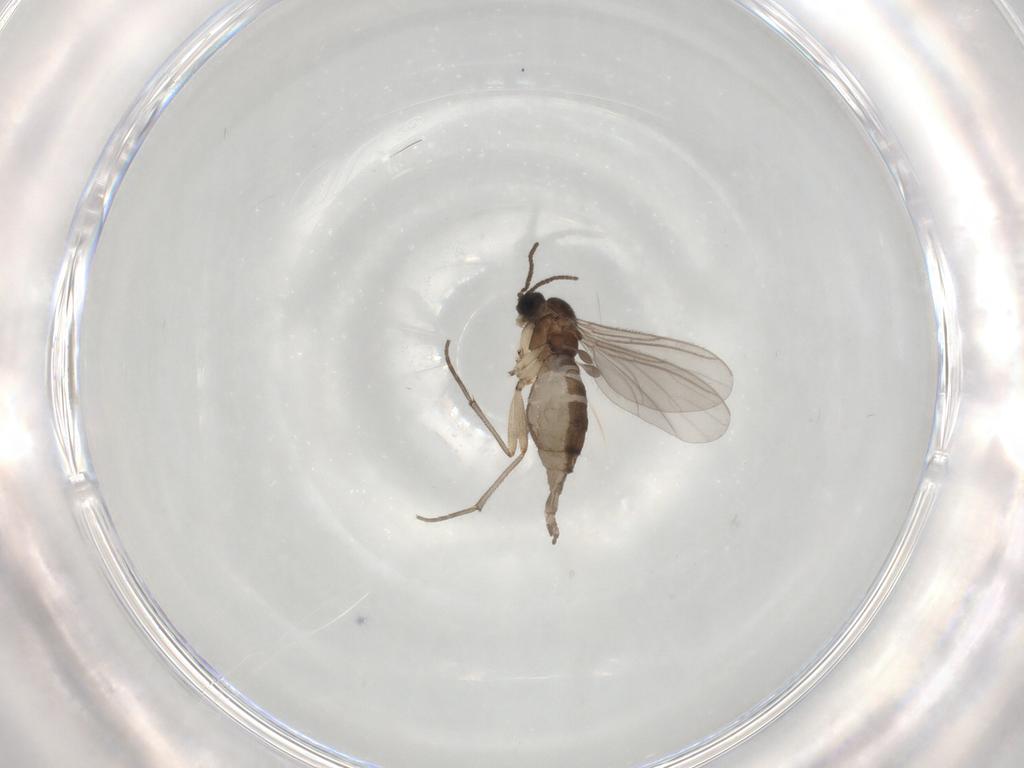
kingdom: Animalia
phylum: Arthropoda
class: Insecta
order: Diptera
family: Sciaridae
